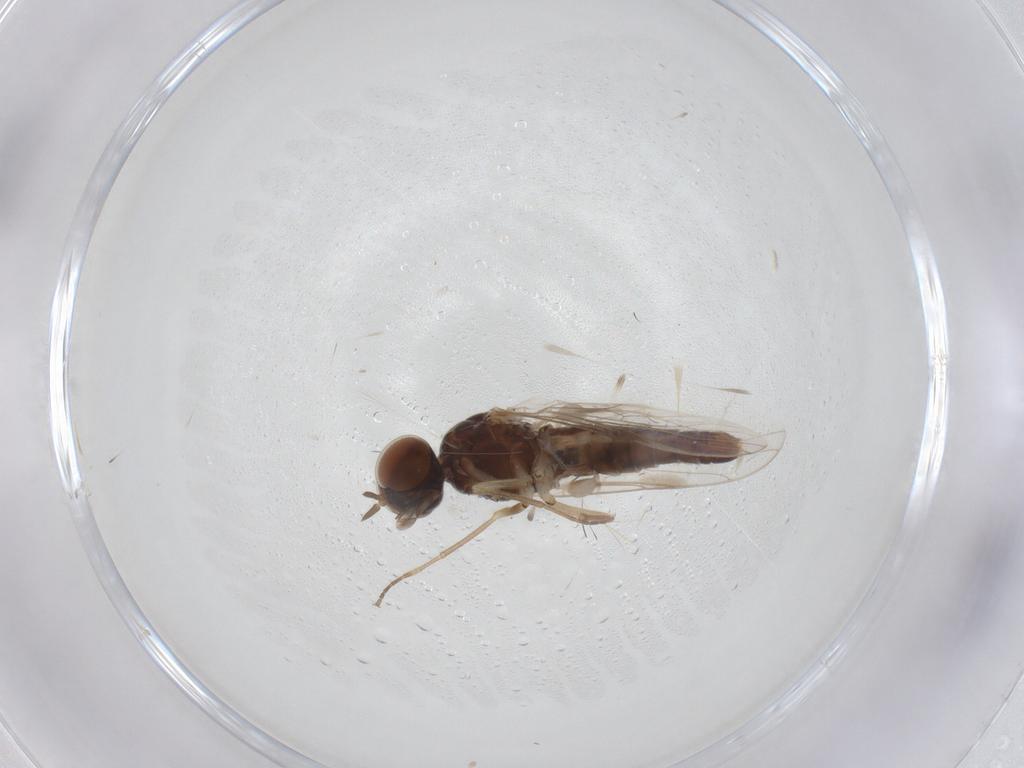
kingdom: Animalia
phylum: Arthropoda
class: Insecta
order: Diptera
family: Scenopinidae
